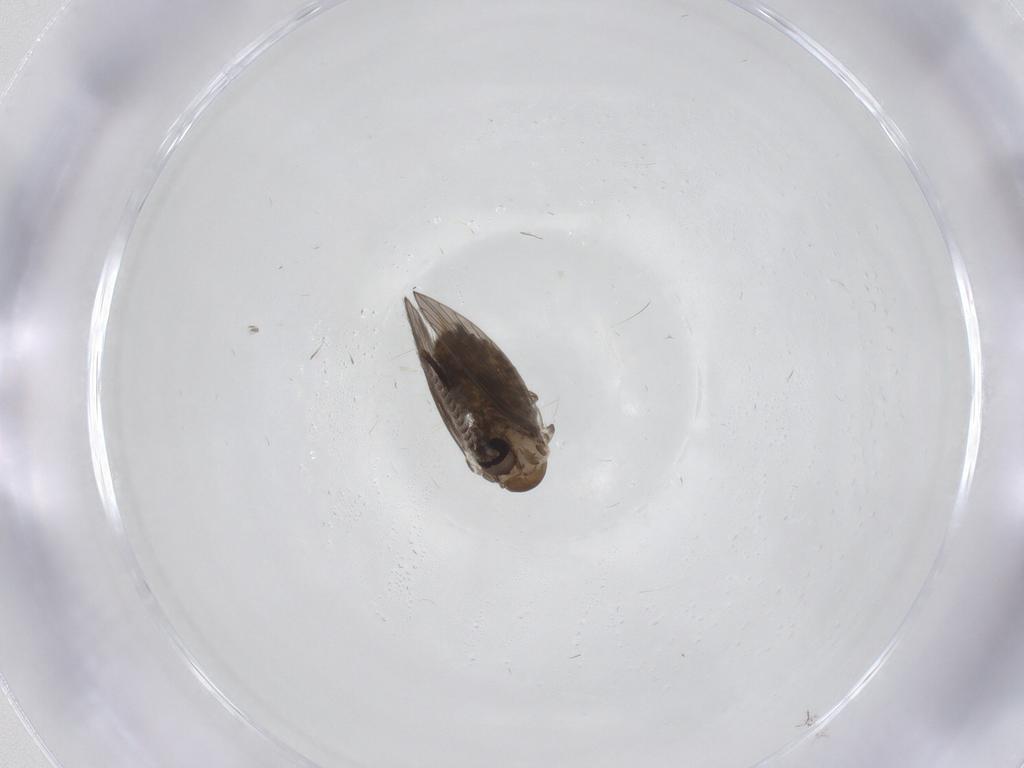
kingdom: Animalia
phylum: Arthropoda
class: Insecta
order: Diptera
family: Psychodidae
